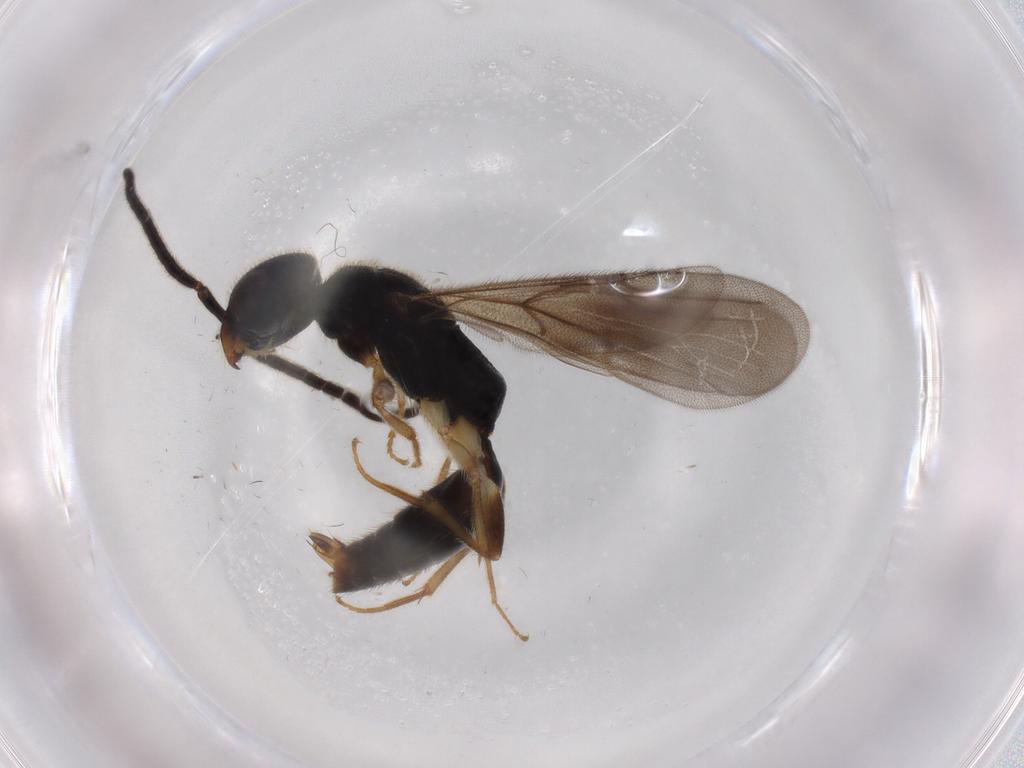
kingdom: Animalia
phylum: Arthropoda
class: Insecta
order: Hymenoptera
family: Bethylidae
